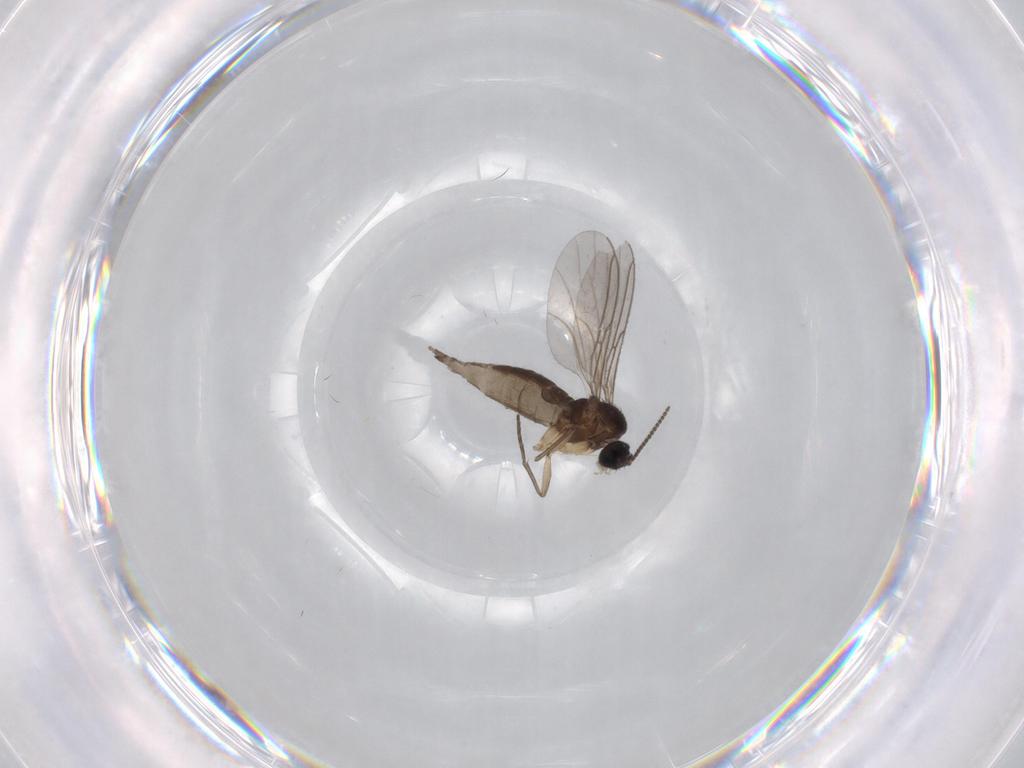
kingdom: Animalia
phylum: Arthropoda
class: Insecta
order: Diptera
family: Sciaridae
